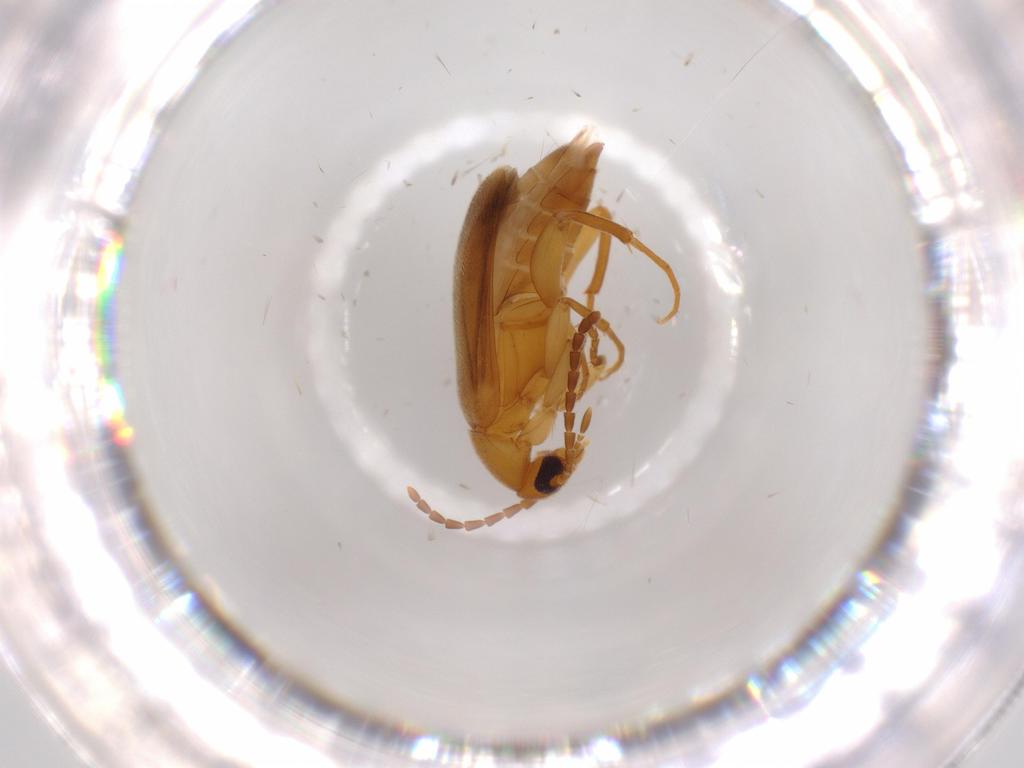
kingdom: Animalia
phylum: Arthropoda
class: Insecta
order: Coleoptera
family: Scraptiidae
